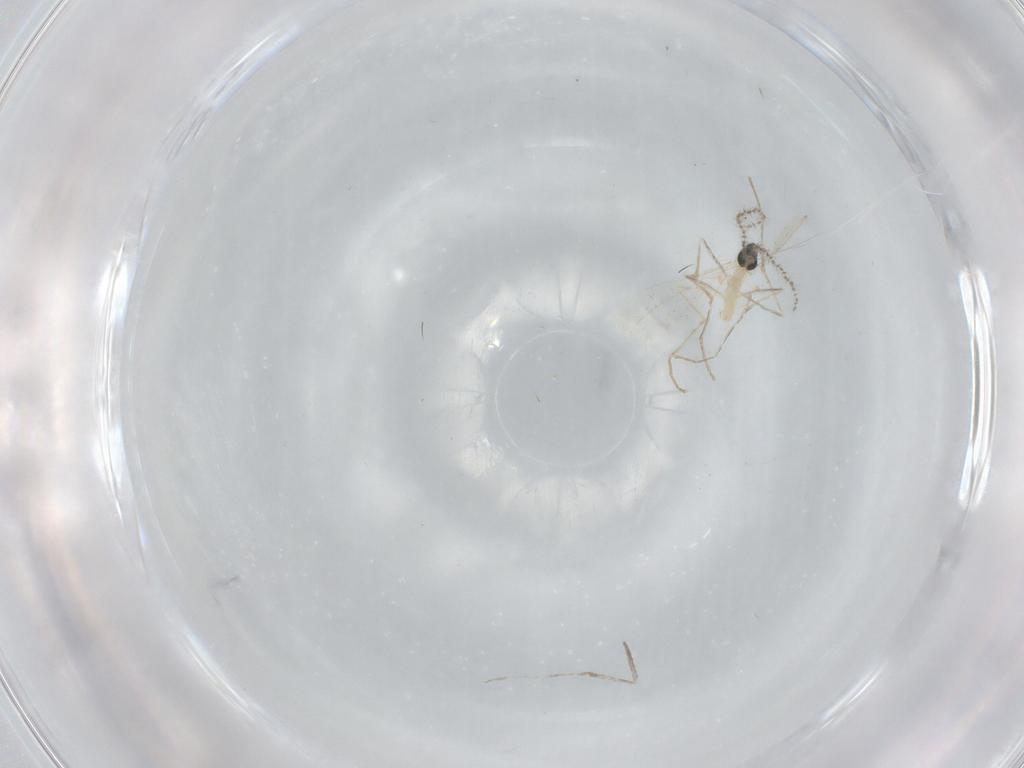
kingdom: Animalia
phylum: Arthropoda
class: Insecta
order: Diptera
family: Cecidomyiidae
